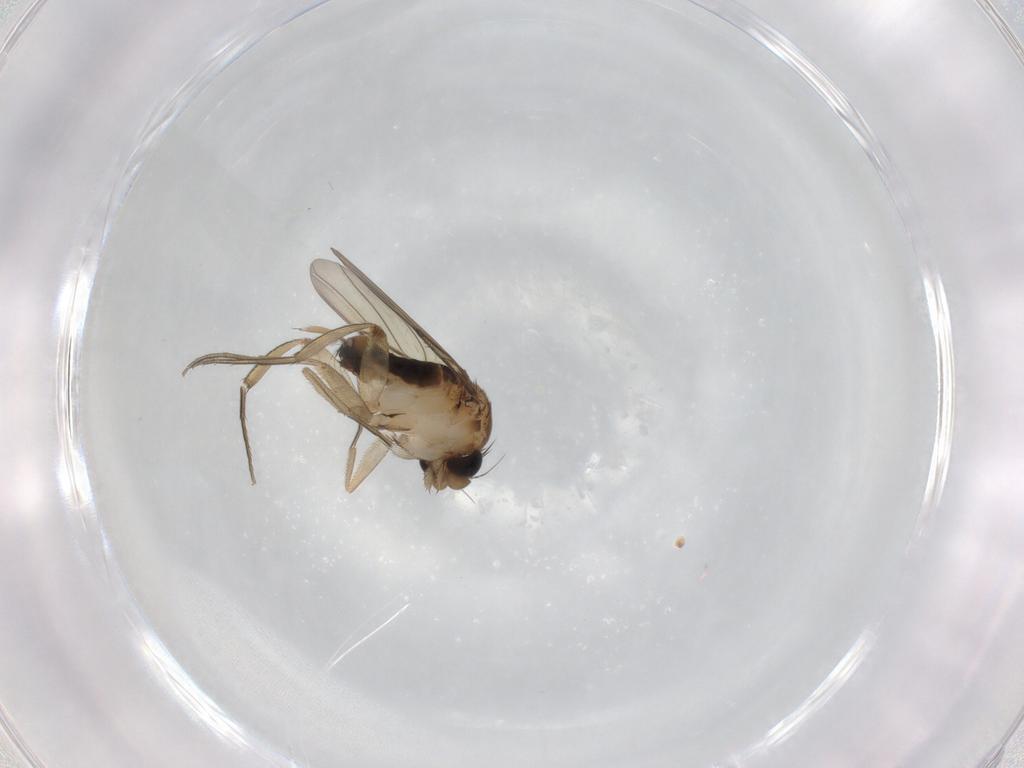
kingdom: Animalia
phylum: Arthropoda
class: Insecta
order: Diptera
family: Phoridae
